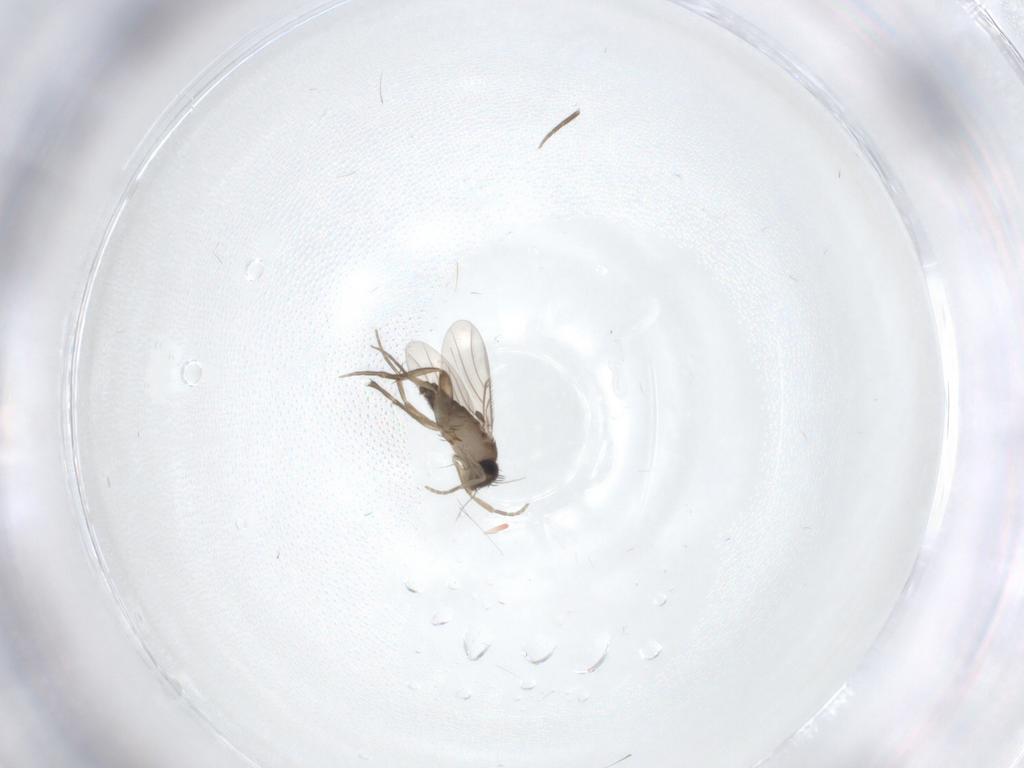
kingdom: Animalia
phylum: Arthropoda
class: Insecta
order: Diptera
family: Phoridae
